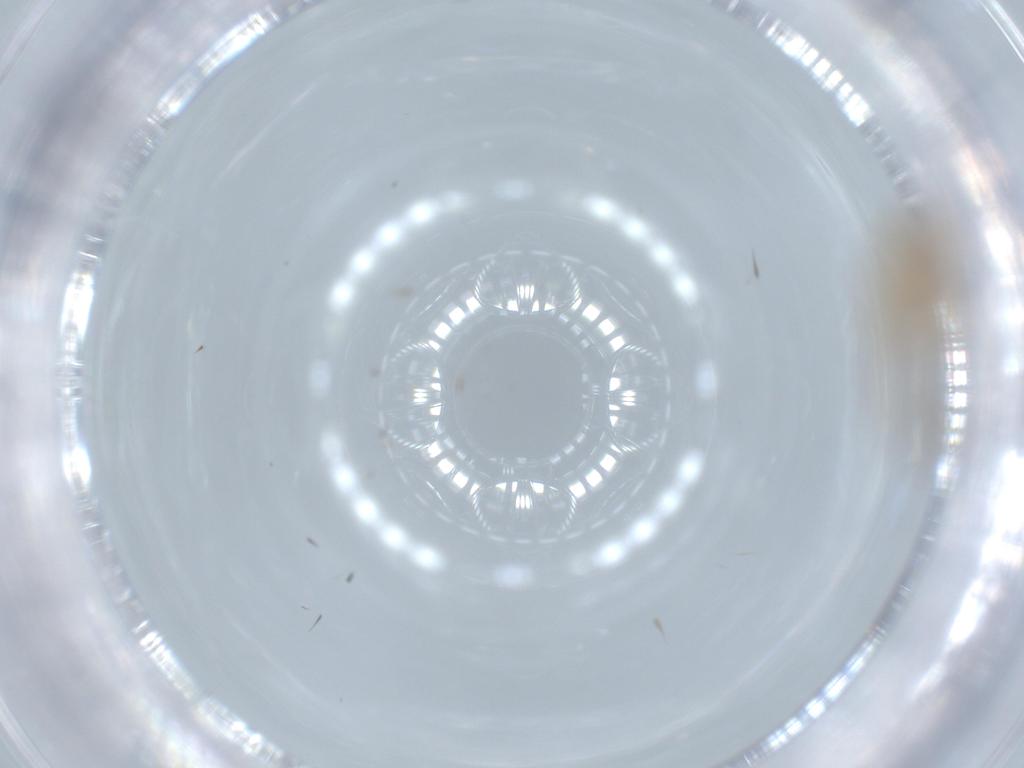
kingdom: Animalia
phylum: Arthropoda
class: Insecta
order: Psocodea
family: Lachesillidae
